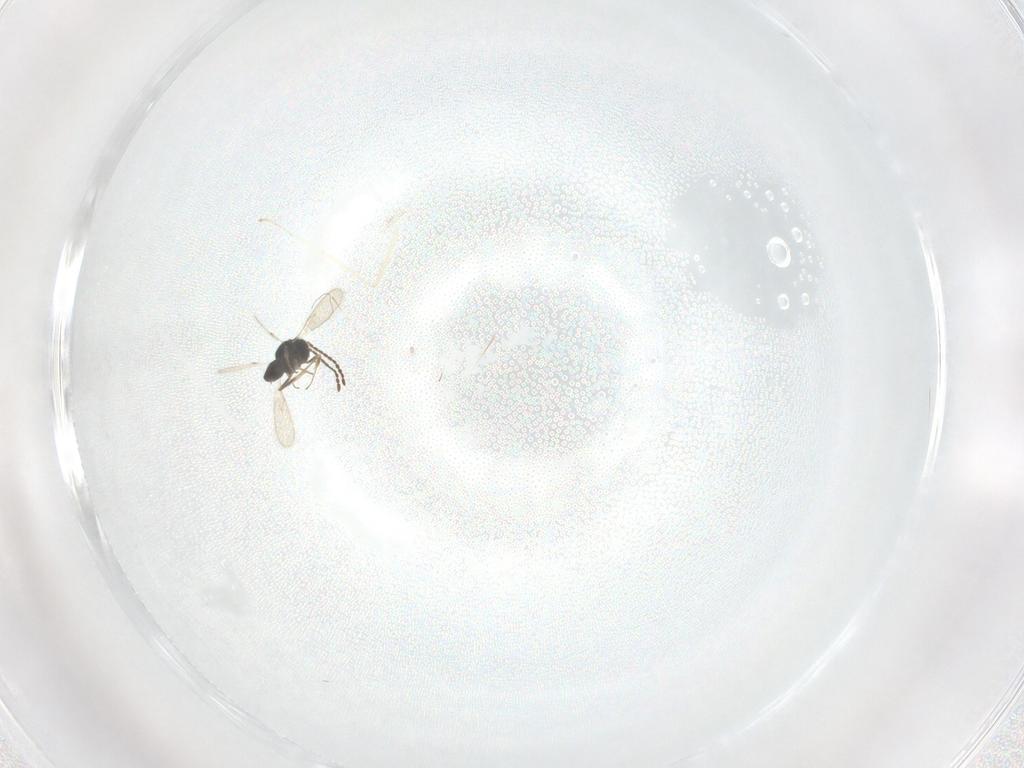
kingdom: Animalia
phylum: Arthropoda
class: Insecta
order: Hymenoptera
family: Scelionidae
